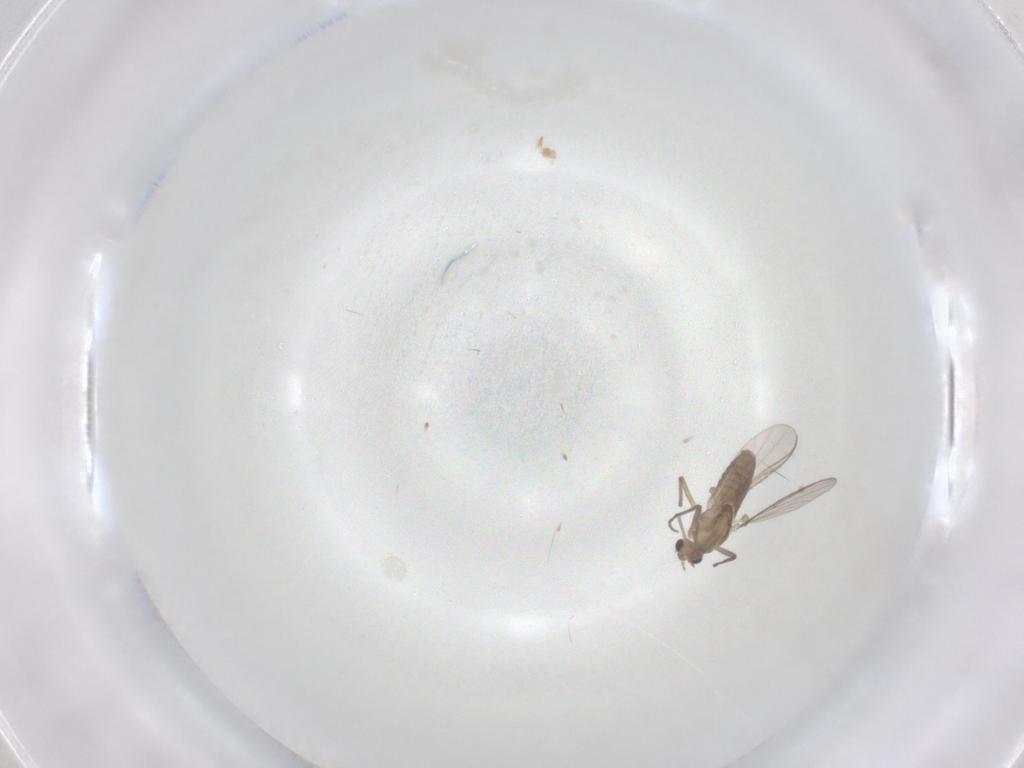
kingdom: Animalia
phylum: Arthropoda
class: Insecta
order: Diptera
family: Chironomidae
